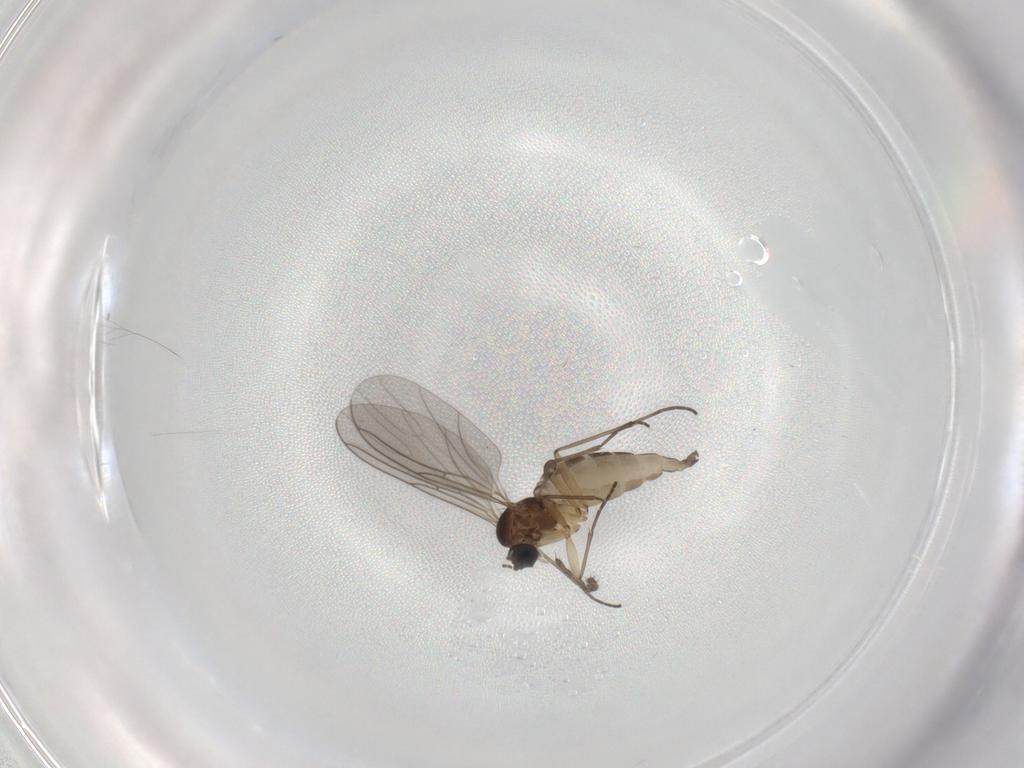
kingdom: Animalia
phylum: Arthropoda
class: Insecta
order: Diptera
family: Sciaridae
